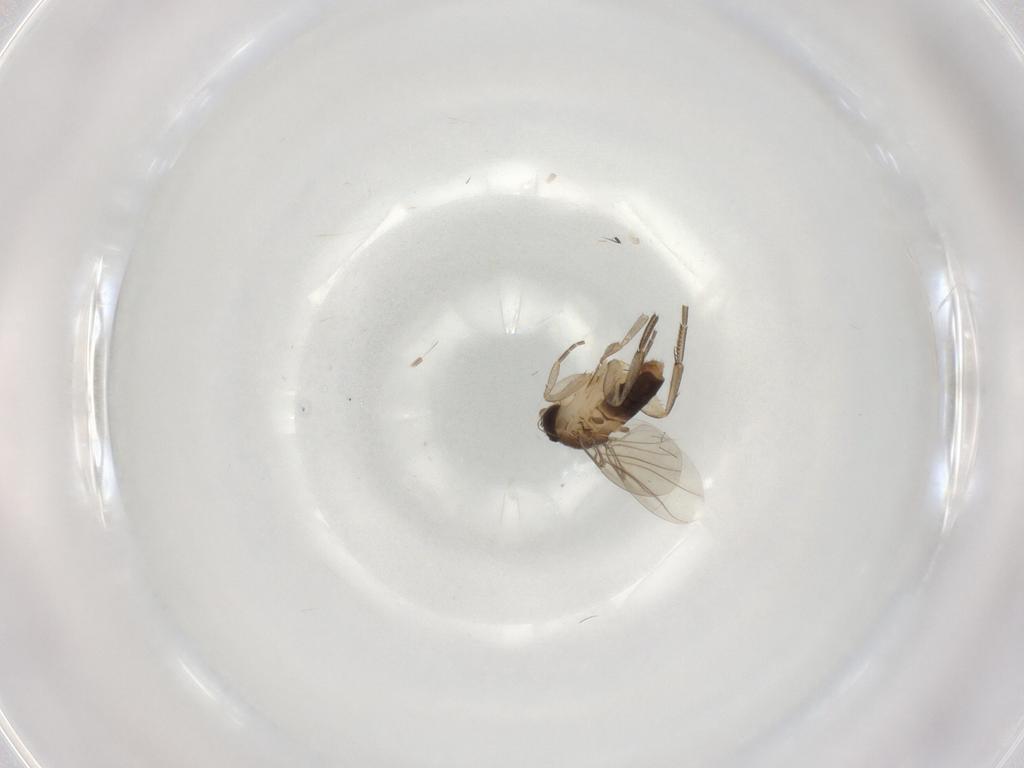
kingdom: Animalia
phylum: Arthropoda
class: Insecta
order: Diptera
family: Phoridae
